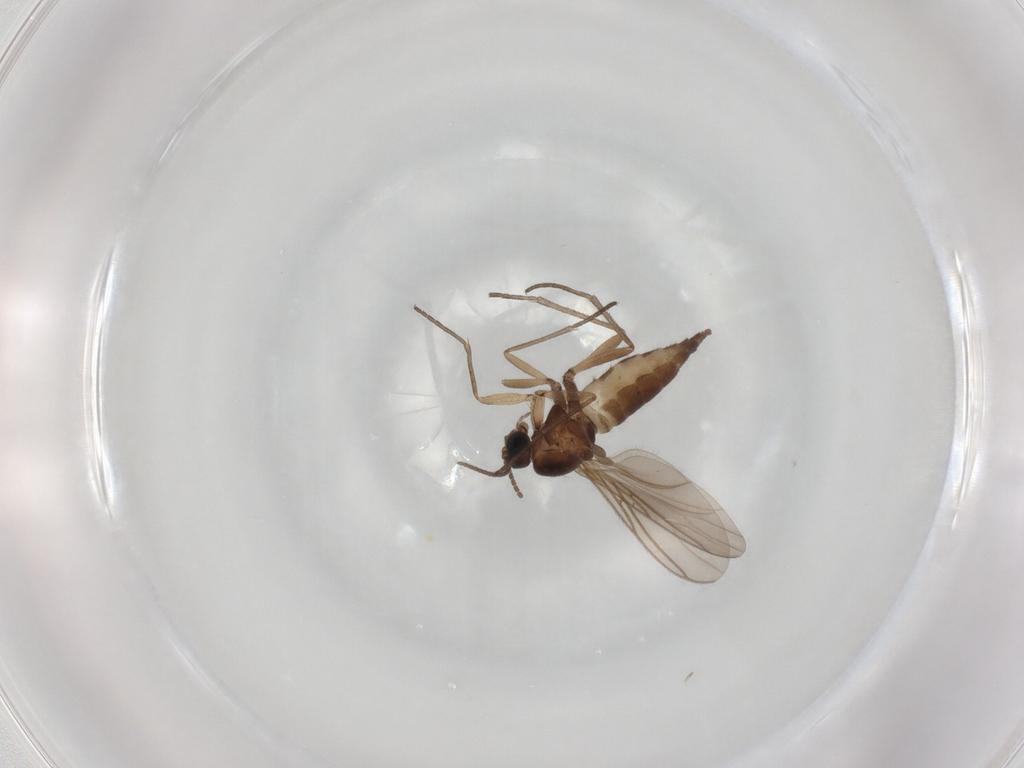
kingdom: Animalia
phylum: Arthropoda
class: Insecta
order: Diptera
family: Sciaridae
